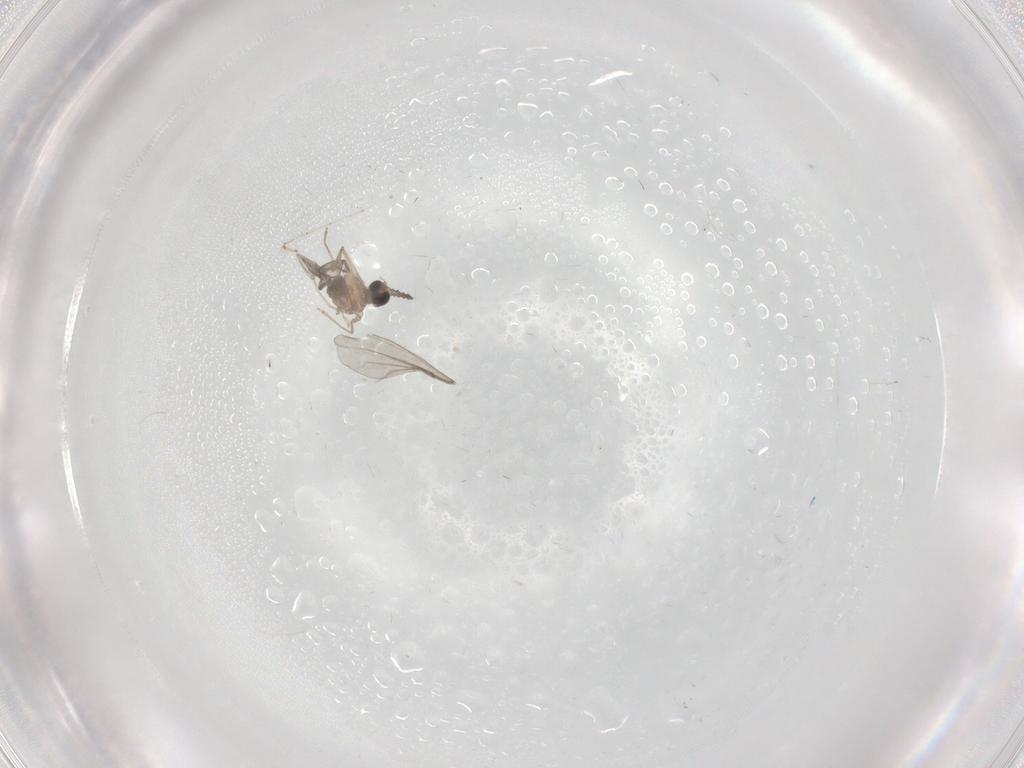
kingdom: Animalia
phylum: Arthropoda
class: Insecta
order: Diptera
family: Cecidomyiidae
